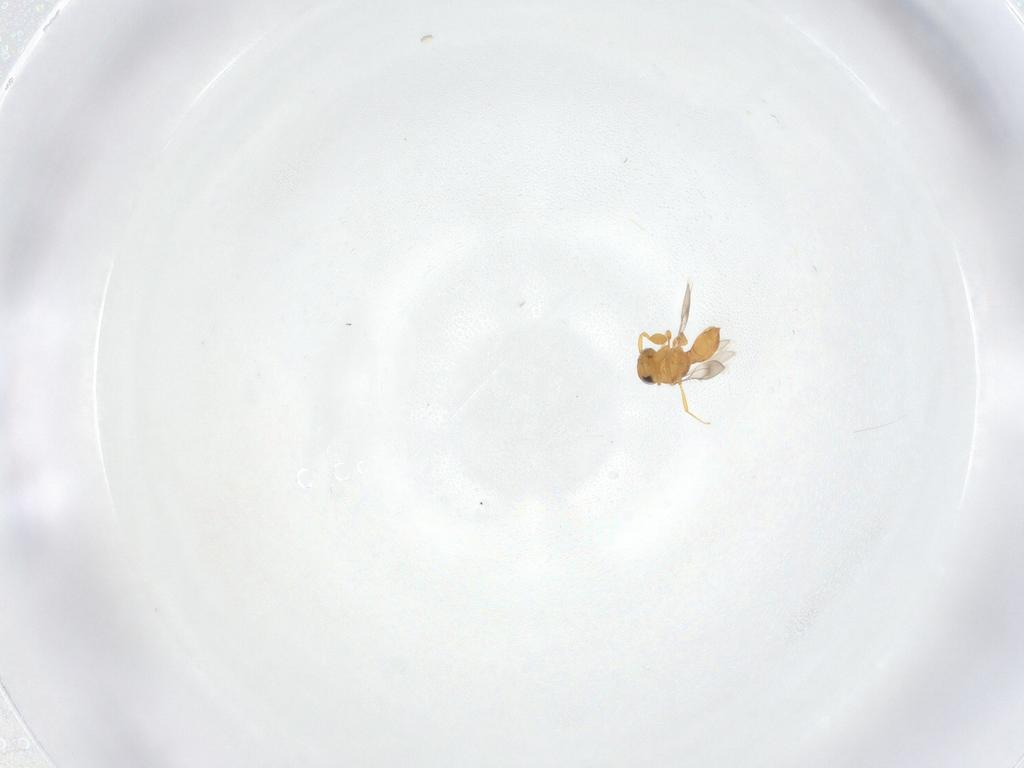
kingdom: Animalia
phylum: Arthropoda
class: Insecta
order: Hymenoptera
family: Scelionidae
